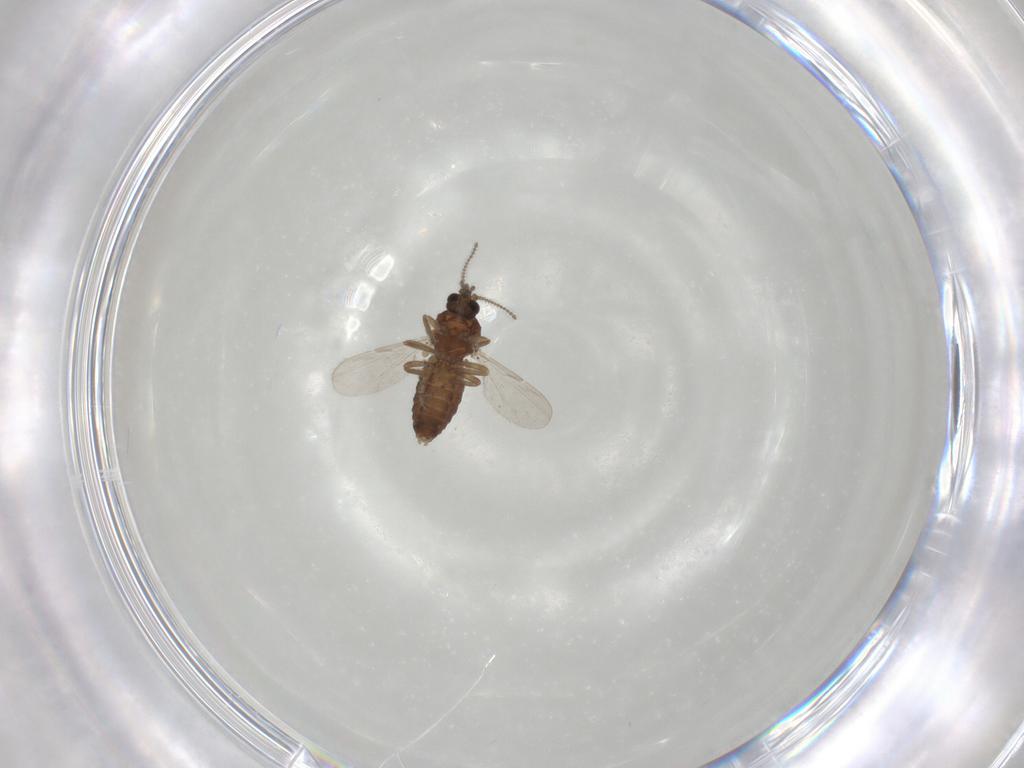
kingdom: Animalia
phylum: Arthropoda
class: Insecta
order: Diptera
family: Ceratopogonidae
